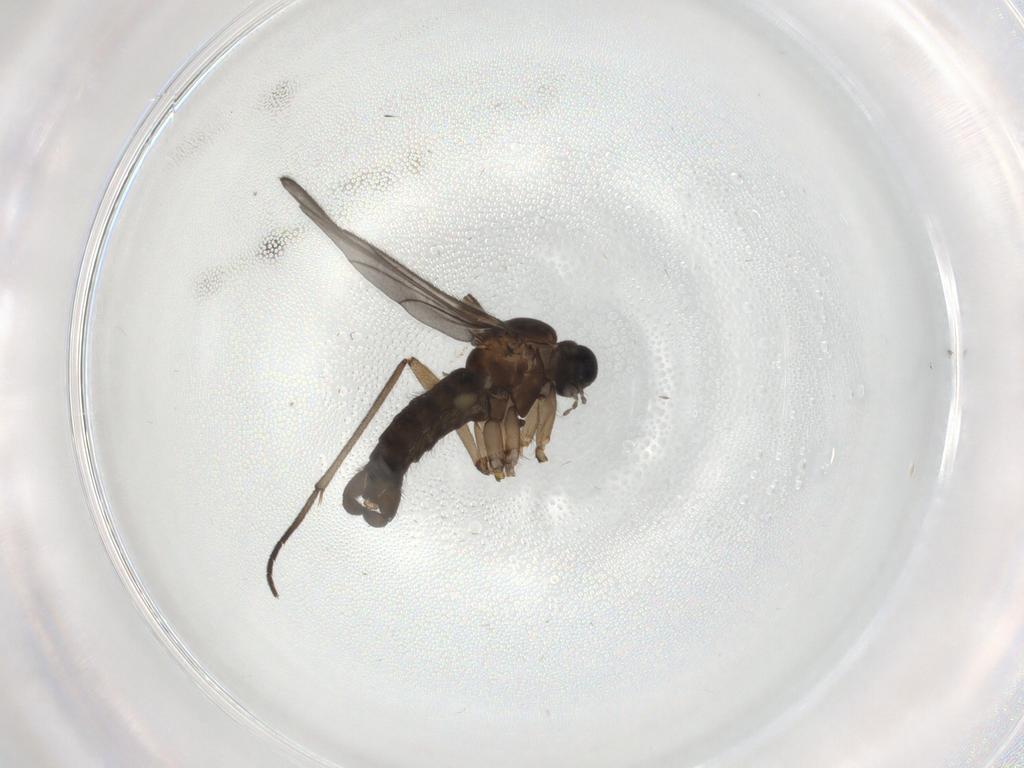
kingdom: Animalia
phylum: Arthropoda
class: Insecta
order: Diptera
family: Sciaridae
